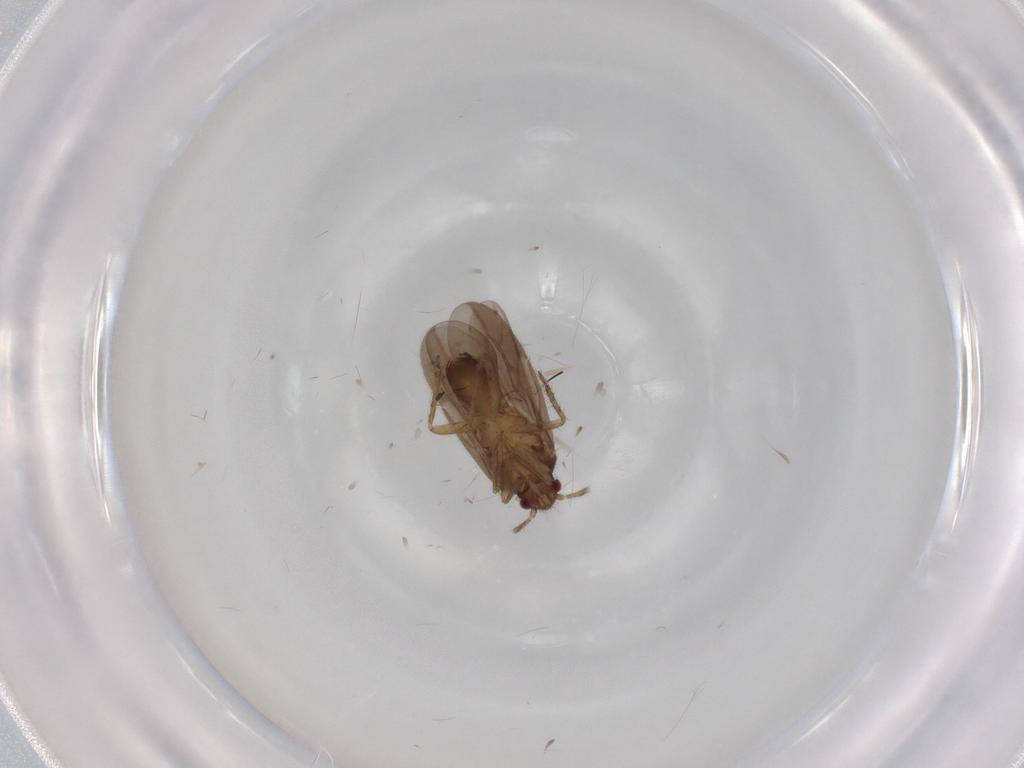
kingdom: Animalia
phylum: Arthropoda
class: Insecta
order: Hemiptera
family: Ceratocombidae
